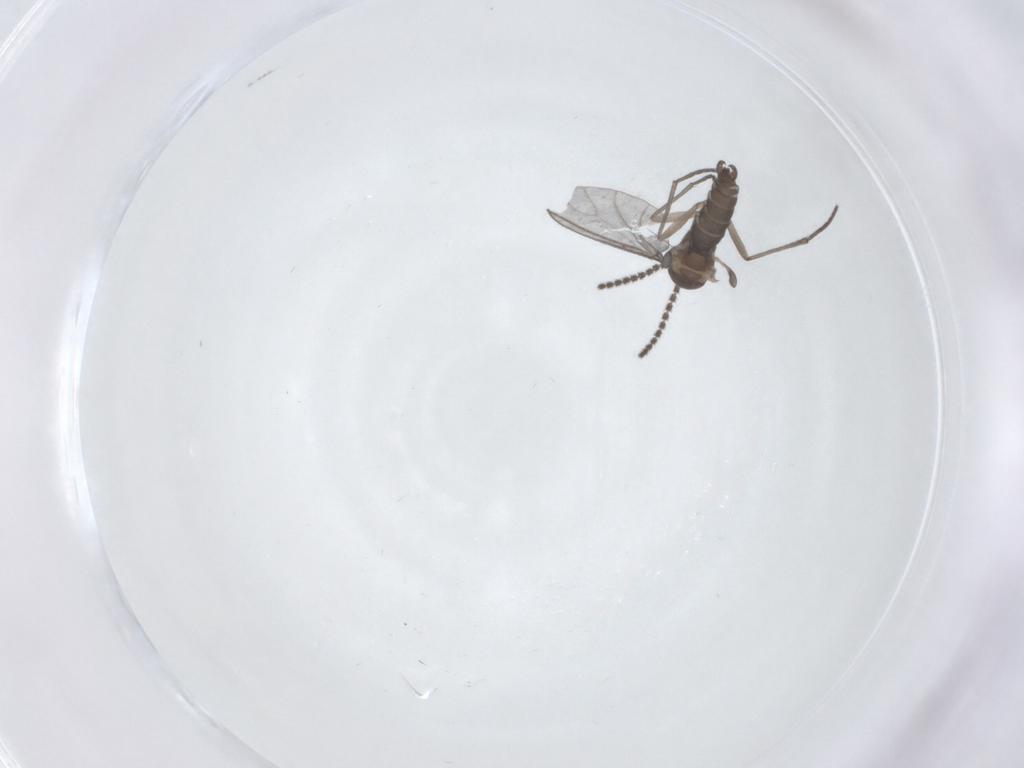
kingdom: Animalia
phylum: Arthropoda
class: Insecta
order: Diptera
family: Sciaridae
